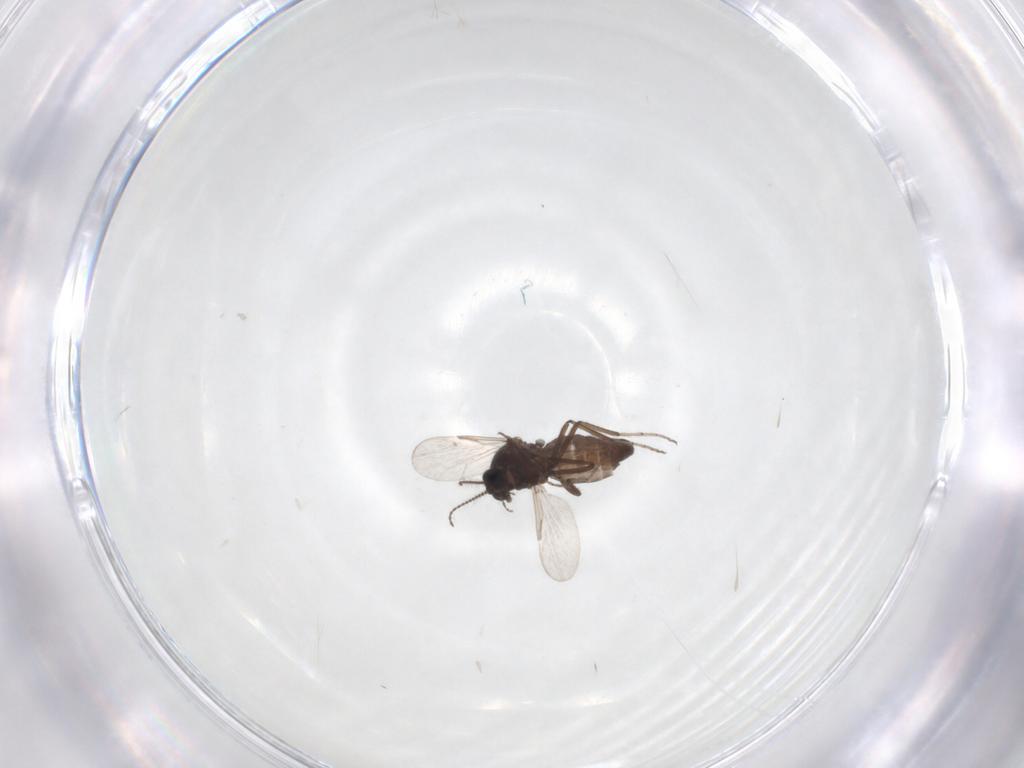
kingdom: Animalia
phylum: Arthropoda
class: Insecta
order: Diptera
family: Ceratopogonidae
